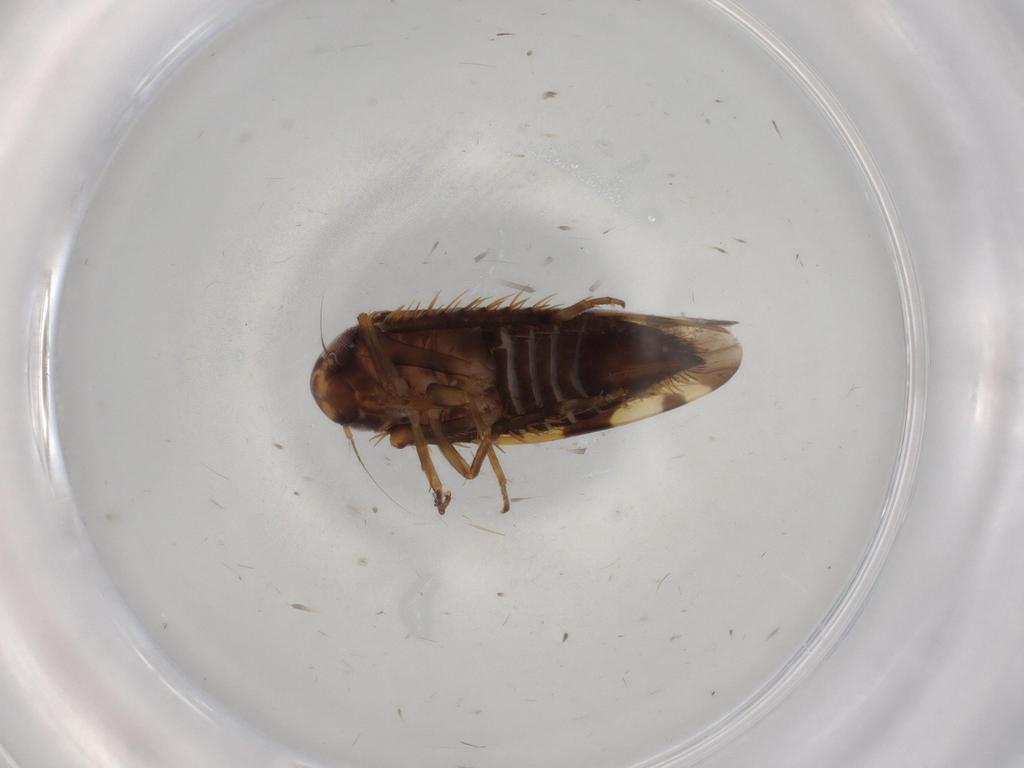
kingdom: Animalia
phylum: Arthropoda
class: Insecta
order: Hemiptera
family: Cicadellidae
